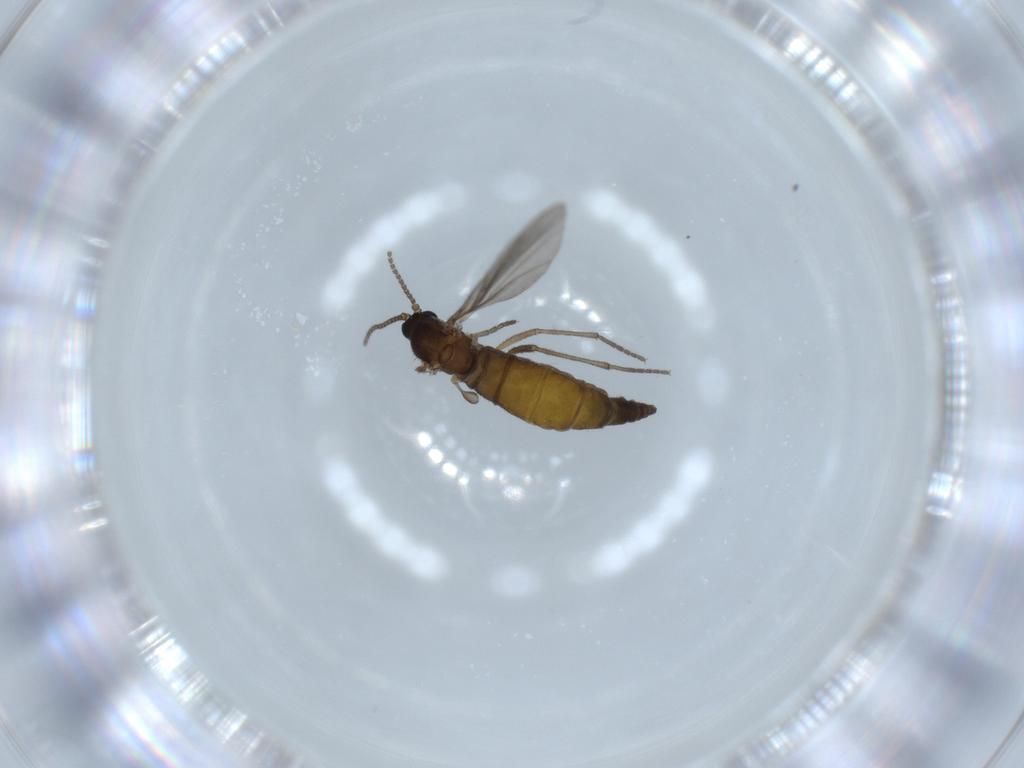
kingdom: Animalia
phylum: Arthropoda
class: Insecta
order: Diptera
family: Sciaridae
